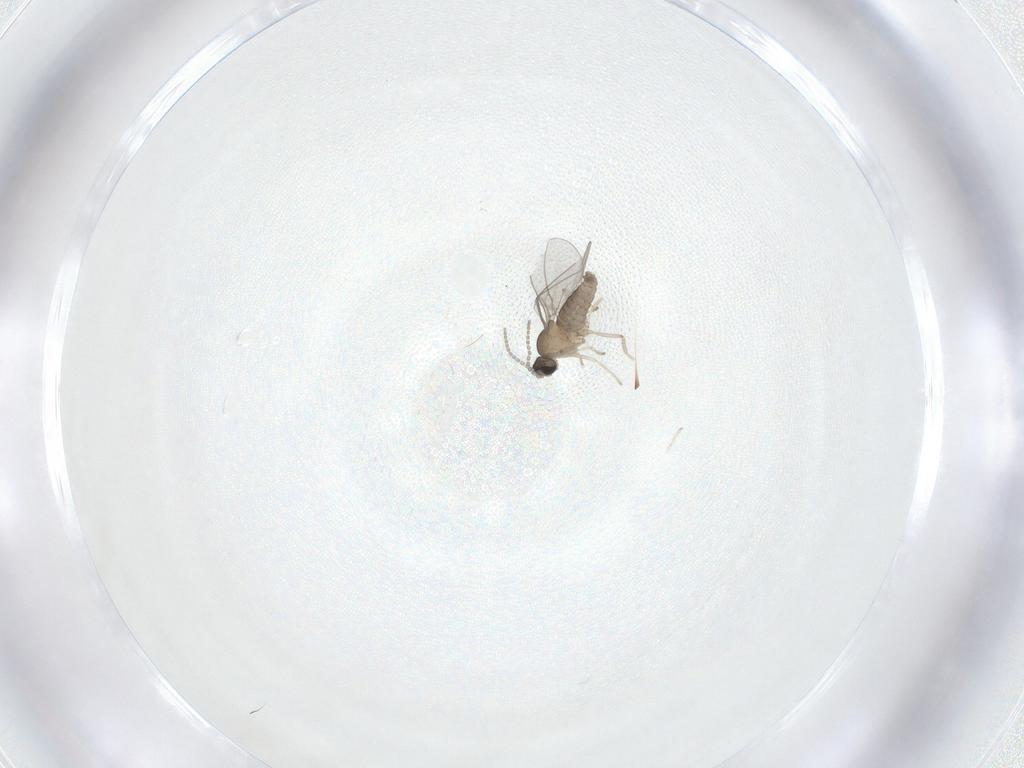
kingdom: Animalia
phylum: Arthropoda
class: Insecta
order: Diptera
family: Cecidomyiidae
